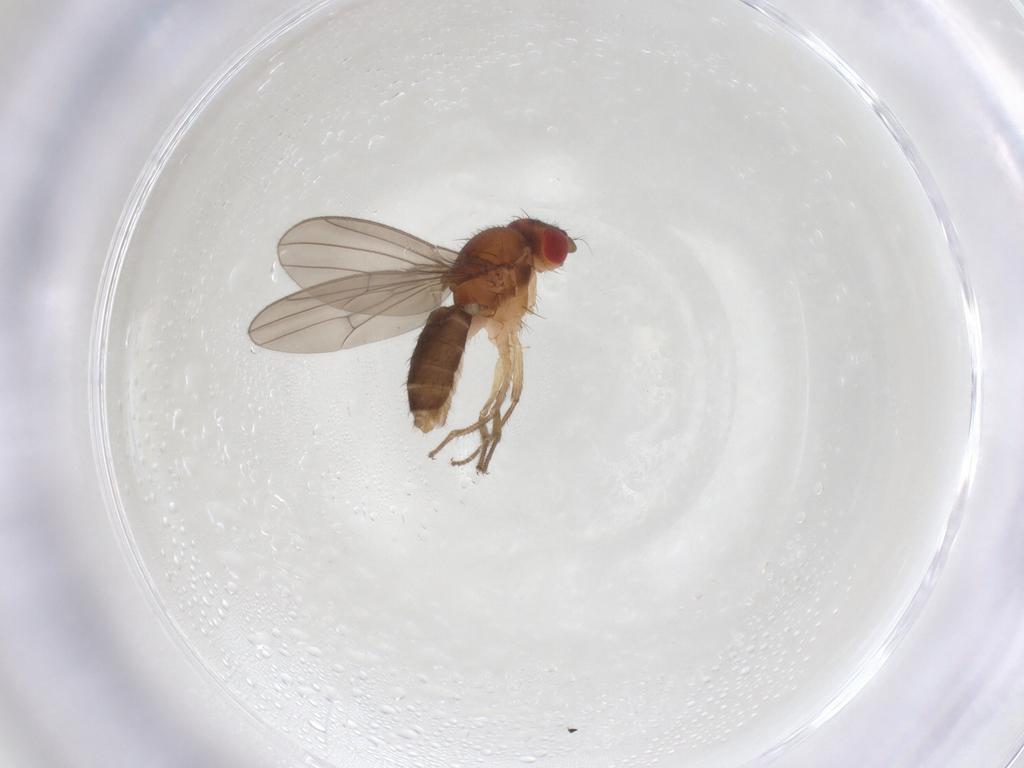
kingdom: Animalia
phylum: Arthropoda
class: Insecta
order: Diptera
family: Drosophilidae
